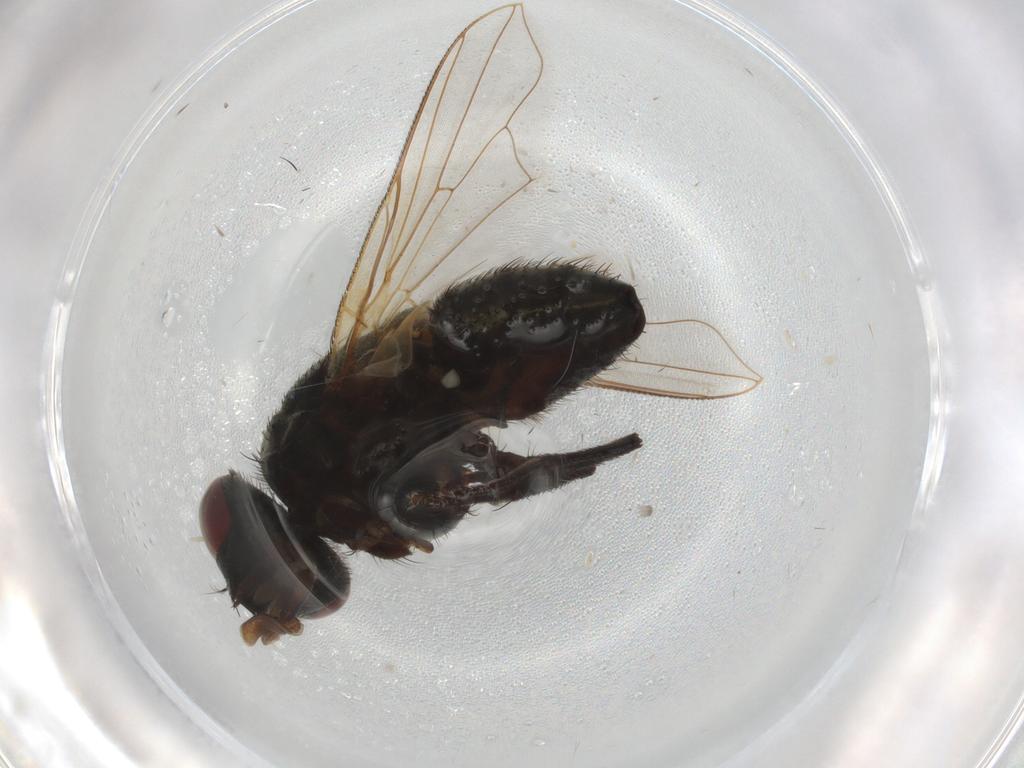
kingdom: Animalia
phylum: Arthropoda
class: Insecta
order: Diptera
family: Muscidae
